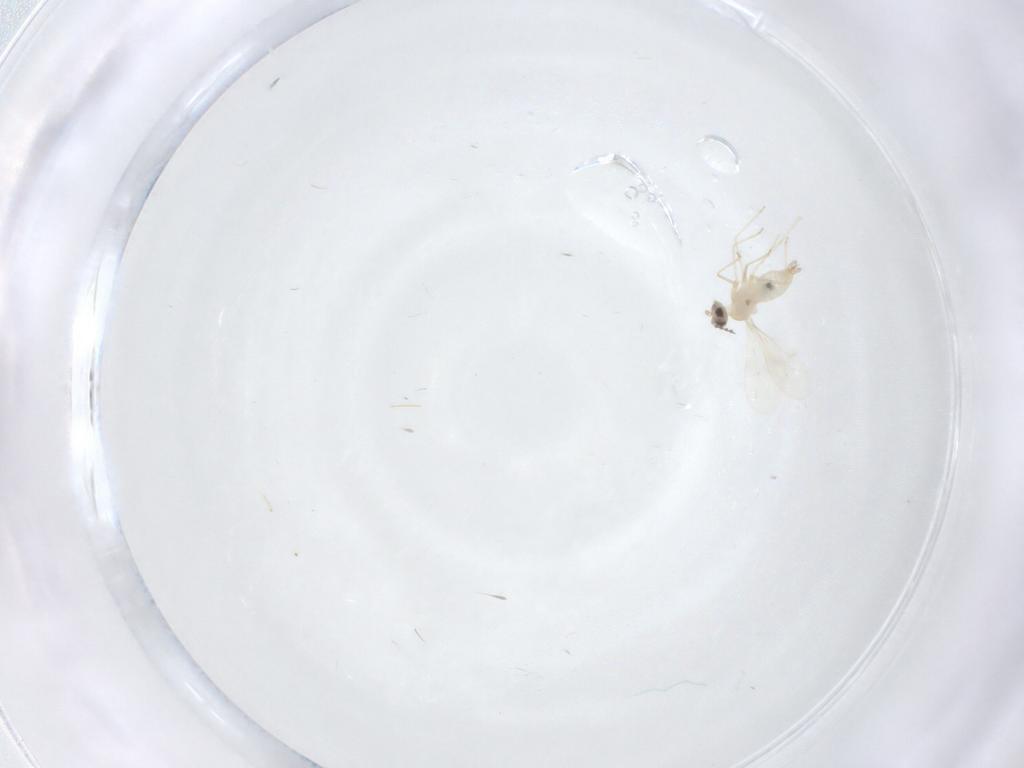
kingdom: Animalia
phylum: Arthropoda
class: Insecta
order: Diptera
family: Cecidomyiidae
